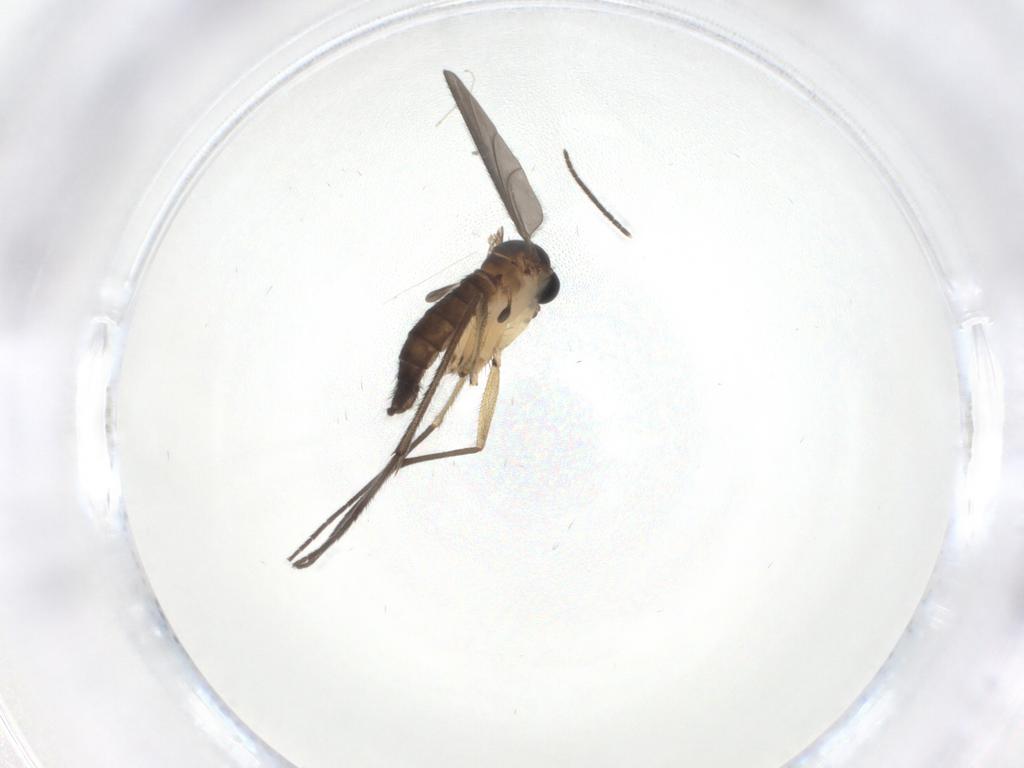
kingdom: Animalia
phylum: Arthropoda
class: Insecta
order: Diptera
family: Sciaridae
